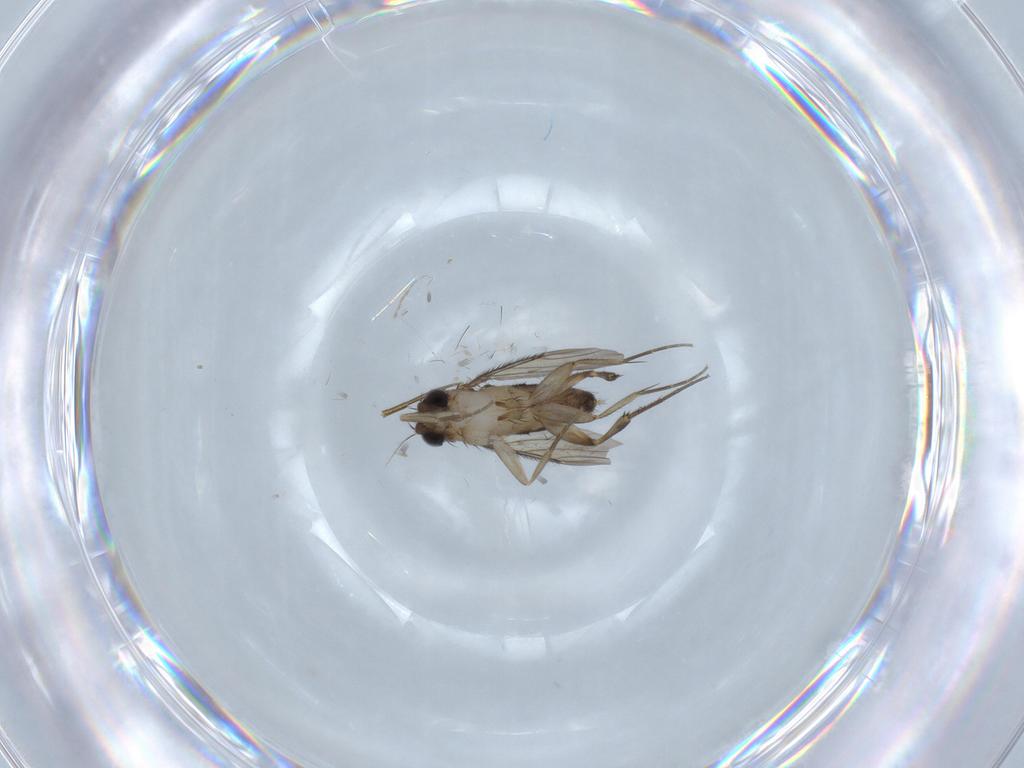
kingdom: Animalia
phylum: Arthropoda
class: Insecta
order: Diptera
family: Phoridae
